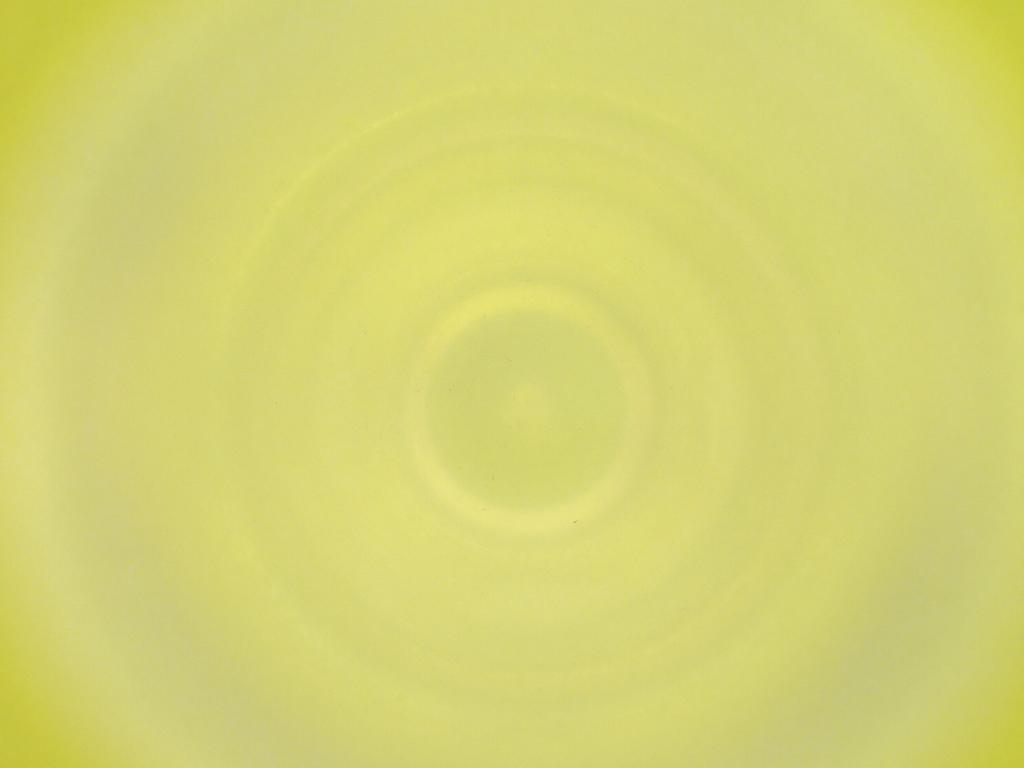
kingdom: Animalia
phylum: Arthropoda
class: Insecta
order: Diptera
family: Cecidomyiidae
